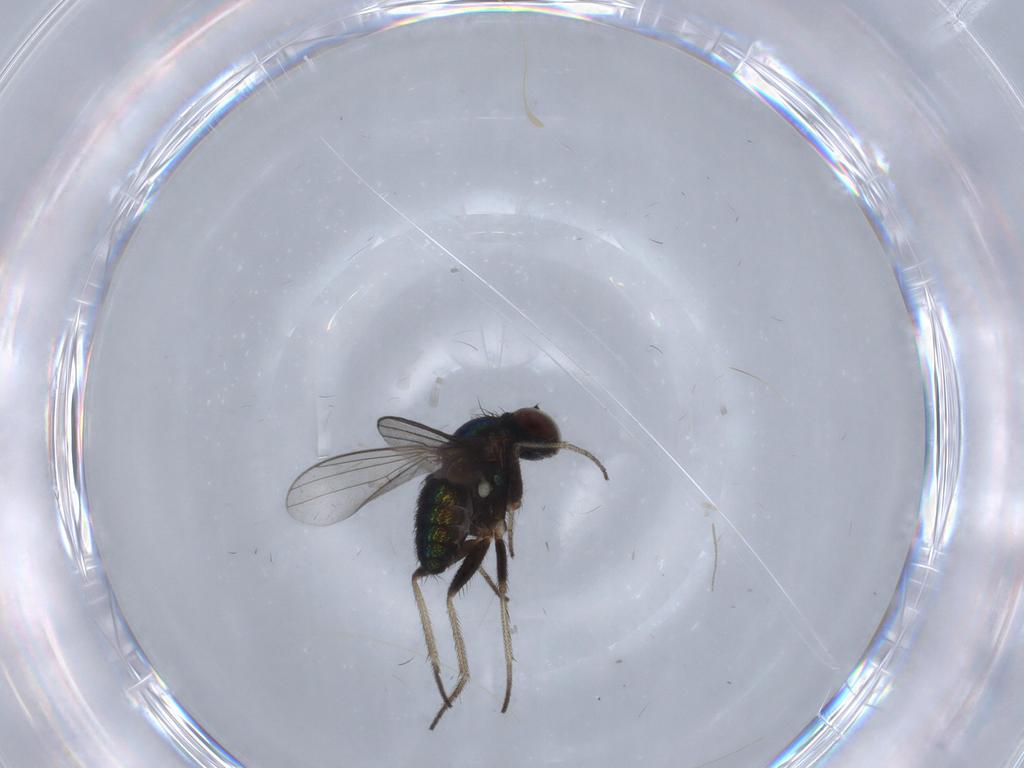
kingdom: Animalia
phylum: Arthropoda
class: Insecta
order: Diptera
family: Dolichopodidae
